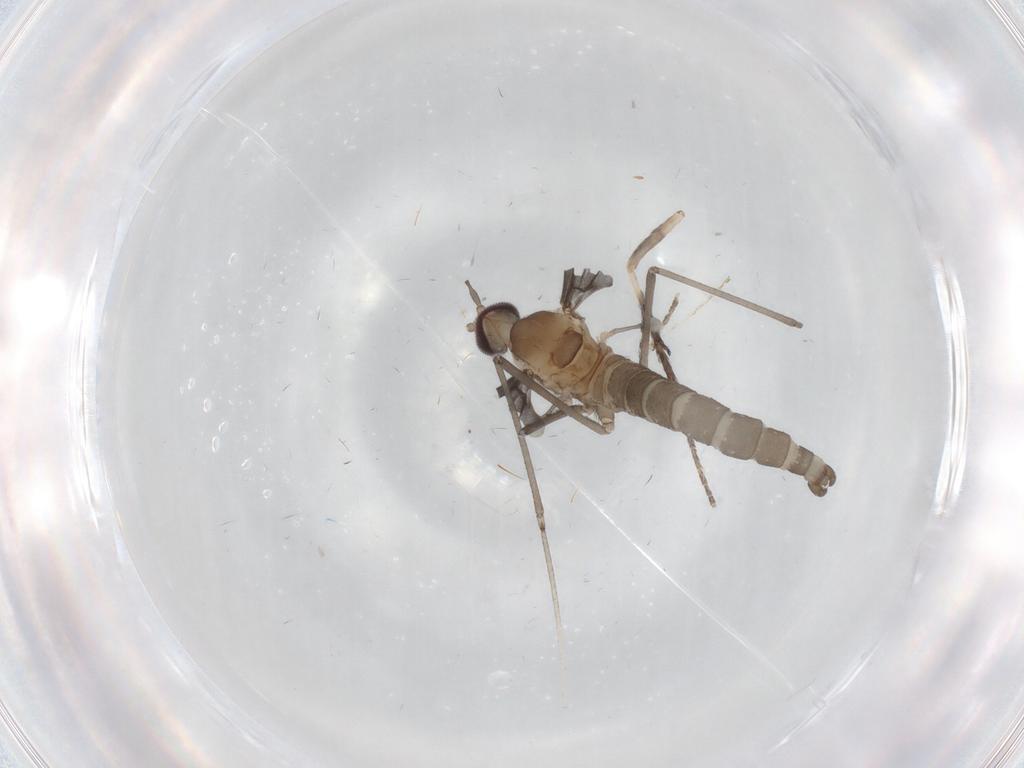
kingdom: Animalia
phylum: Arthropoda
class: Insecta
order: Diptera
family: Cecidomyiidae
